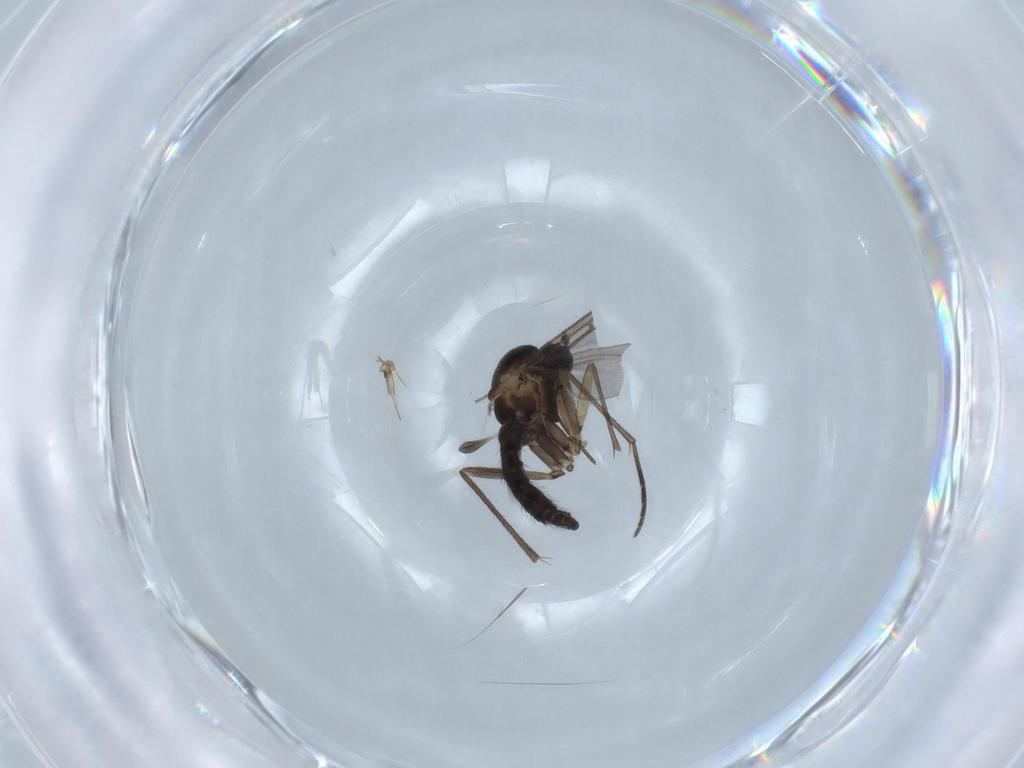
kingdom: Animalia
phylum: Arthropoda
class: Insecta
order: Diptera
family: Sciaridae
